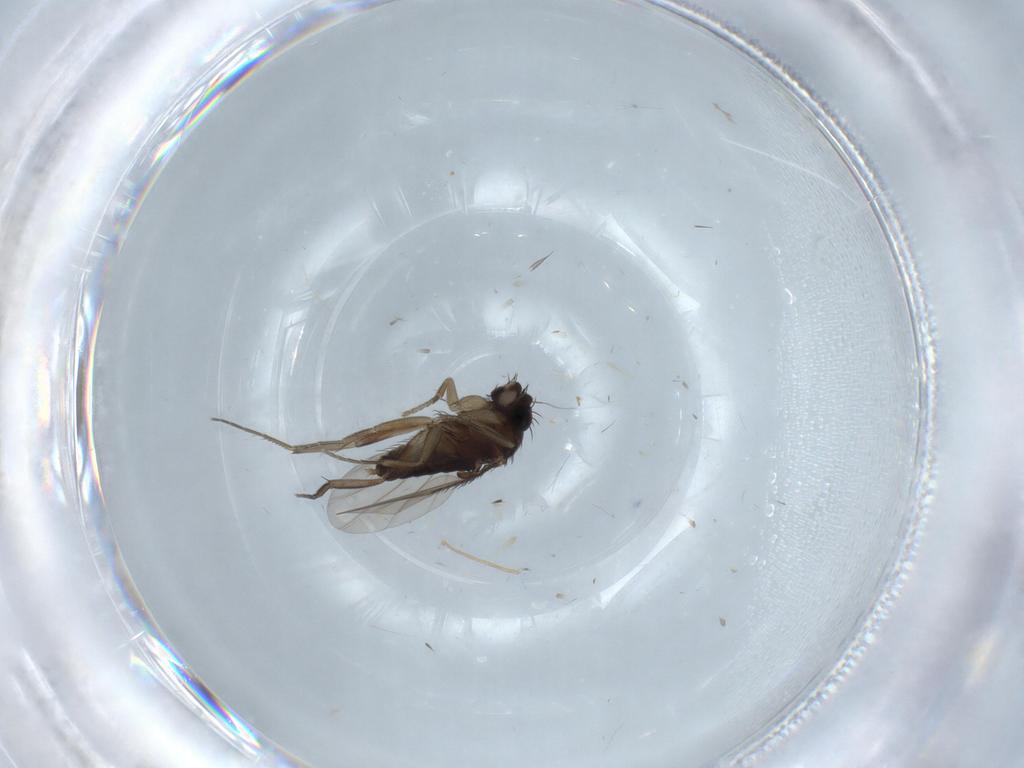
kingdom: Animalia
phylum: Arthropoda
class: Insecta
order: Diptera
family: Phoridae
